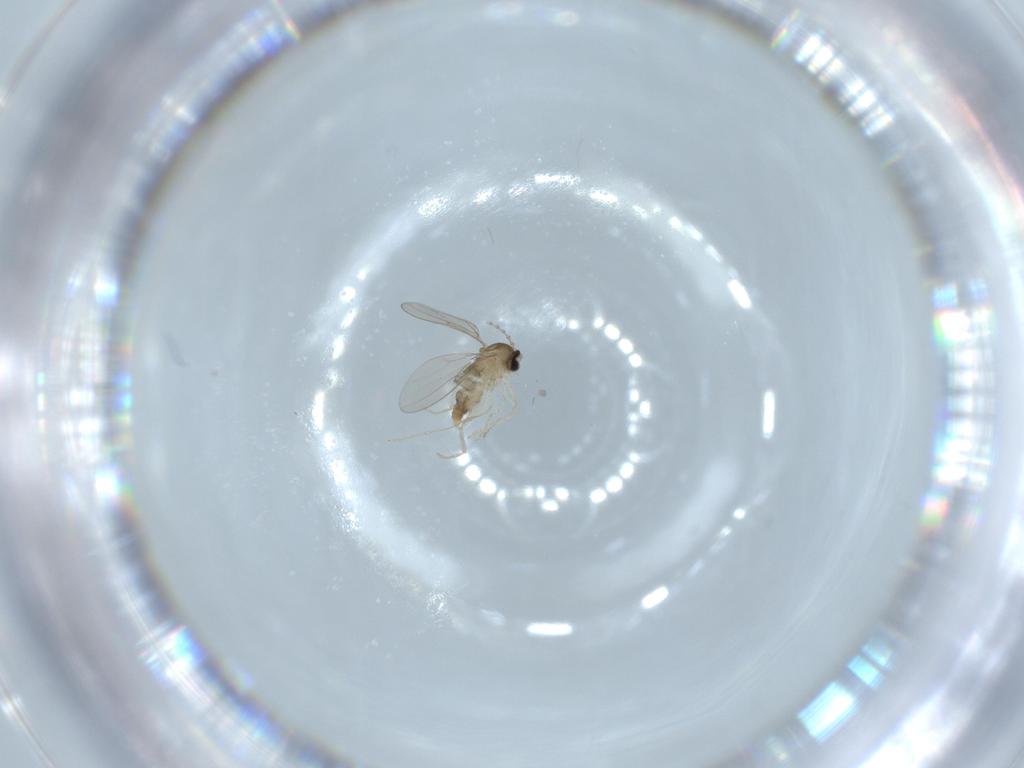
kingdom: Animalia
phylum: Arthropoda
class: Insecta
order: Diptera
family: Cecidomyiidae
